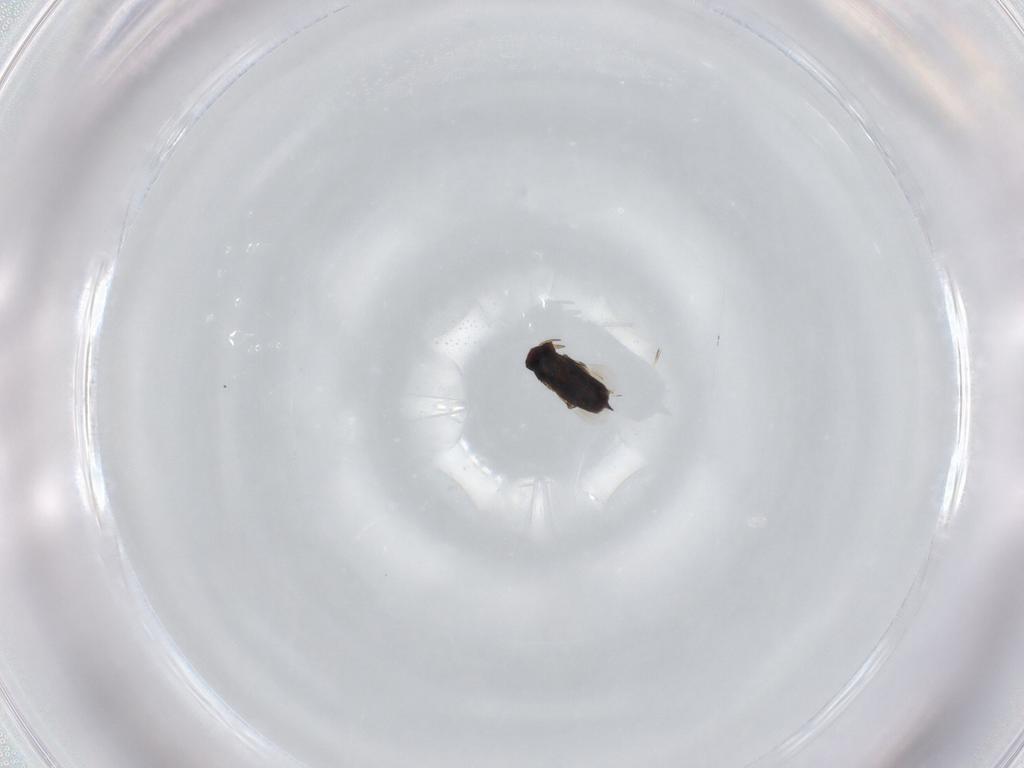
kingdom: Animalia
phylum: Arthropoda
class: Insecta
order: Hymenoptera
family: Signiphoridae
